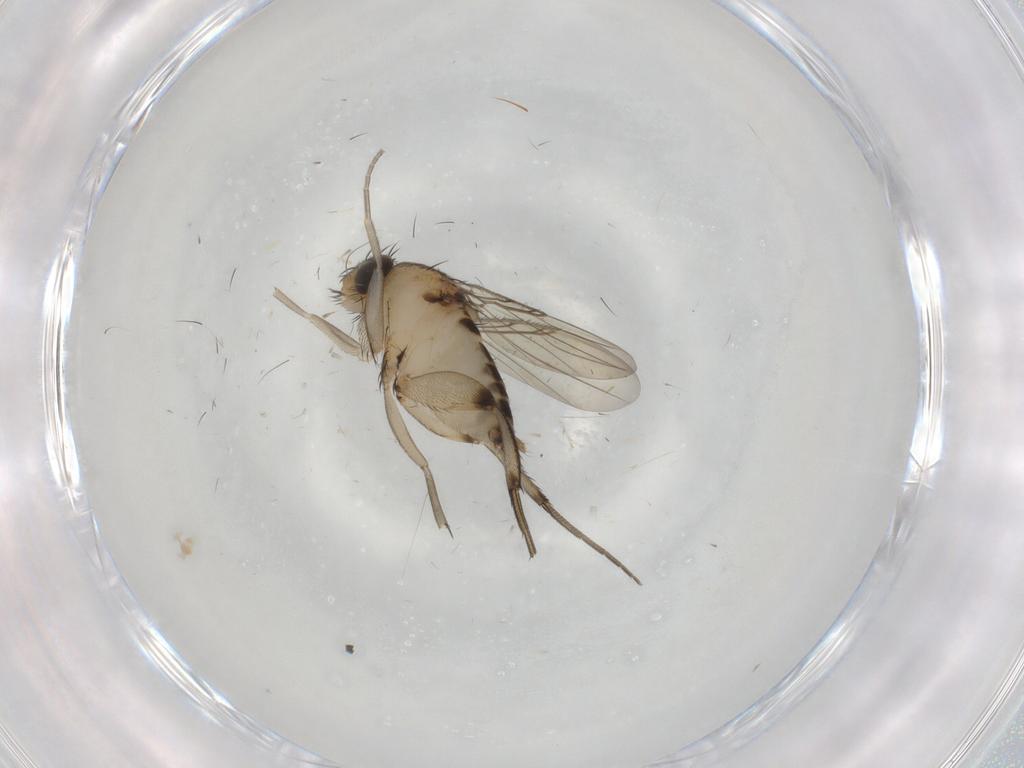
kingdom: Animalia
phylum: Arthropoda
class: Insecta
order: Diptera
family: Phoridae
